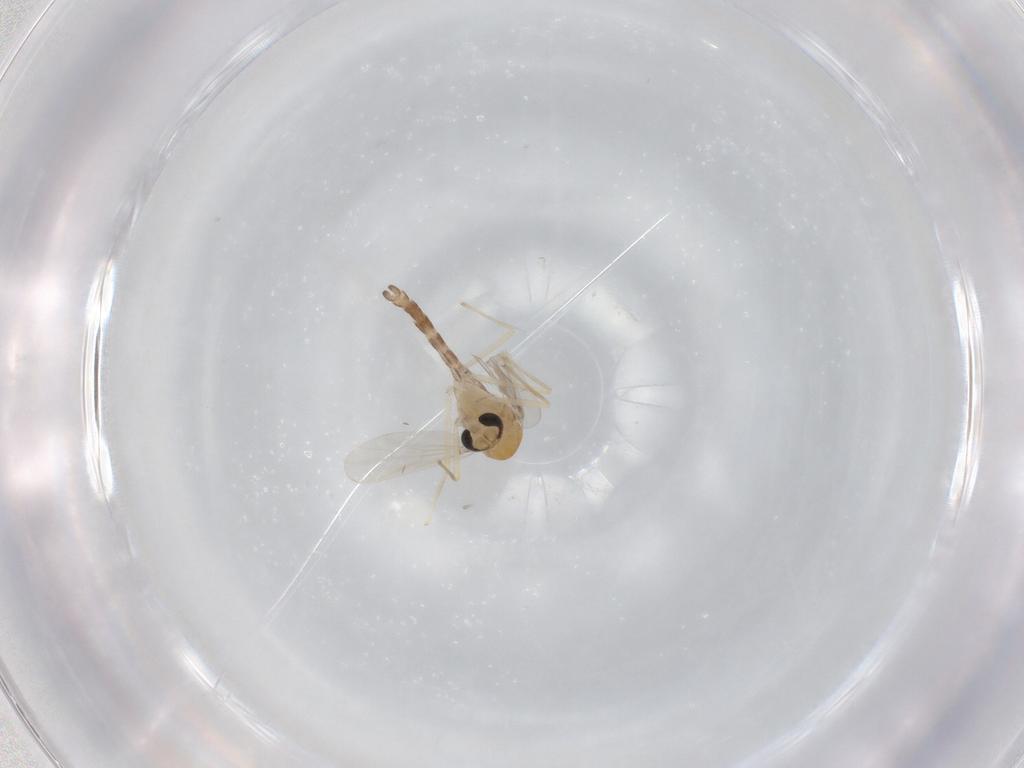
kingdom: Animalia
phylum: Arthropoda
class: Insecta
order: Diptera
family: Chironomidae
